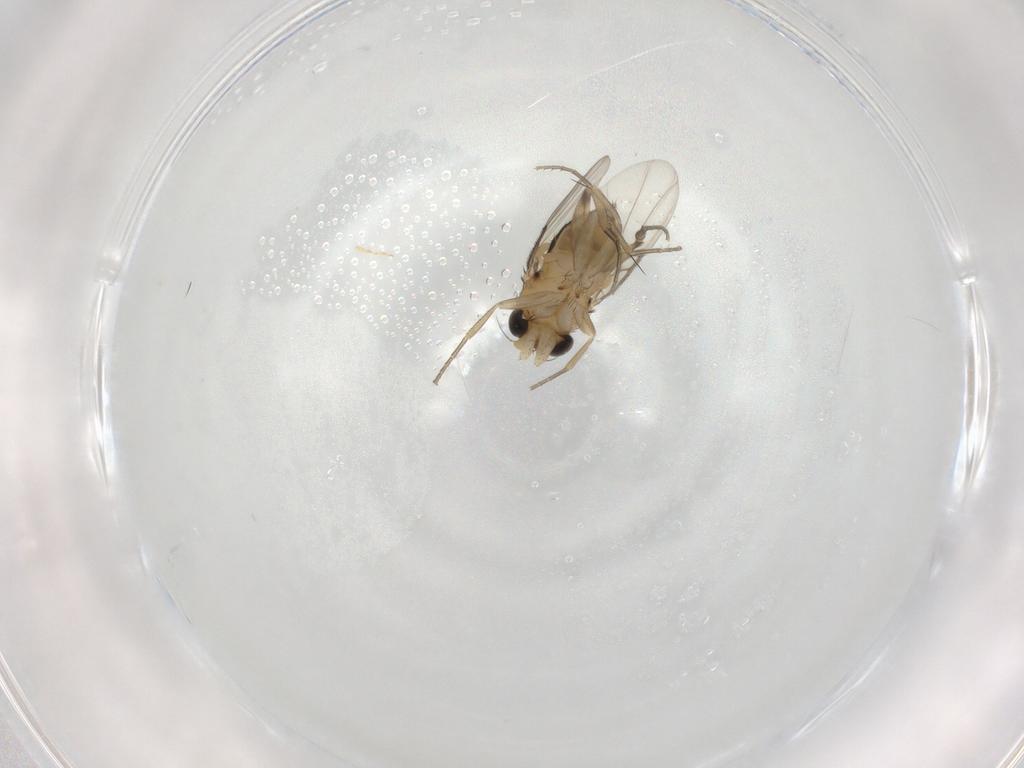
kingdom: Animalia
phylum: Arthropoda
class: Insecta
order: Diptera
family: Phoridae
